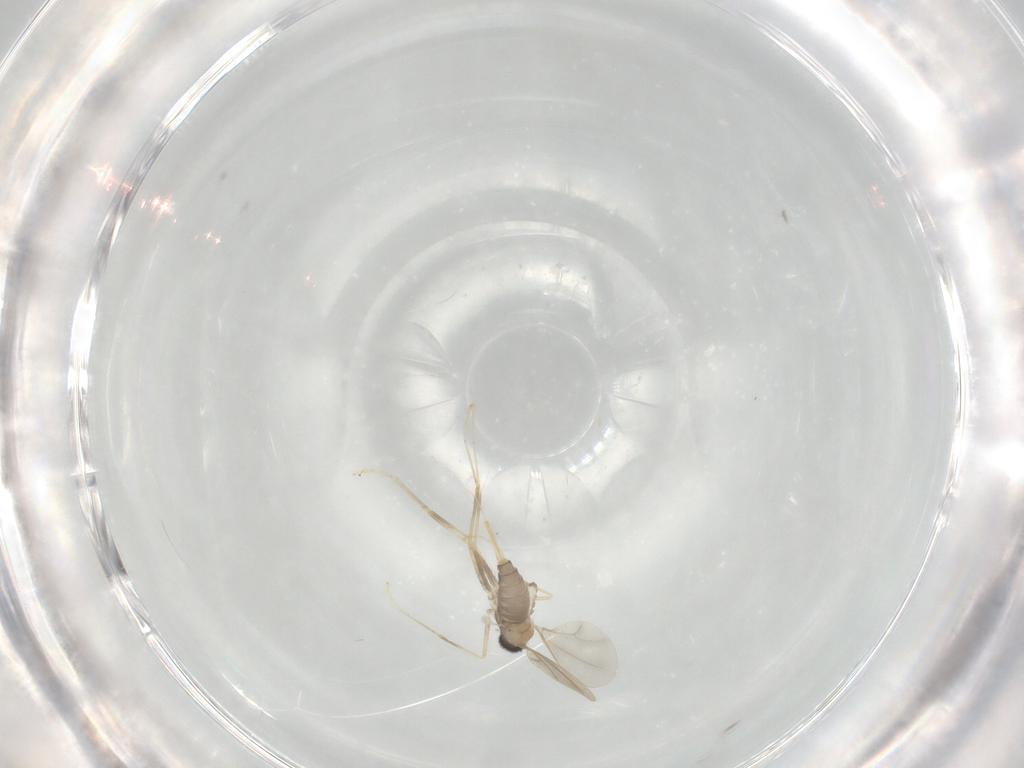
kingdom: Animalia
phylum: Arthropoda
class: Insecta
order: Diptera
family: Cecidomyiidae
